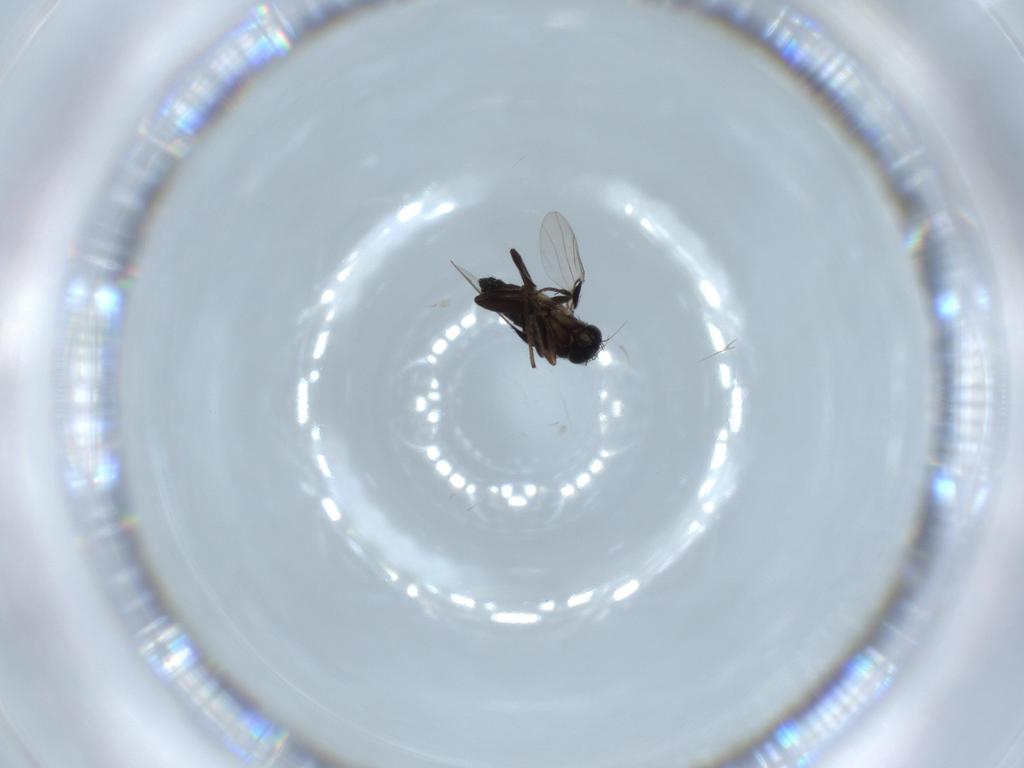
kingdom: Animalia
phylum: Arthropoda
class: Insecta
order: Diptera
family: Phoridae
